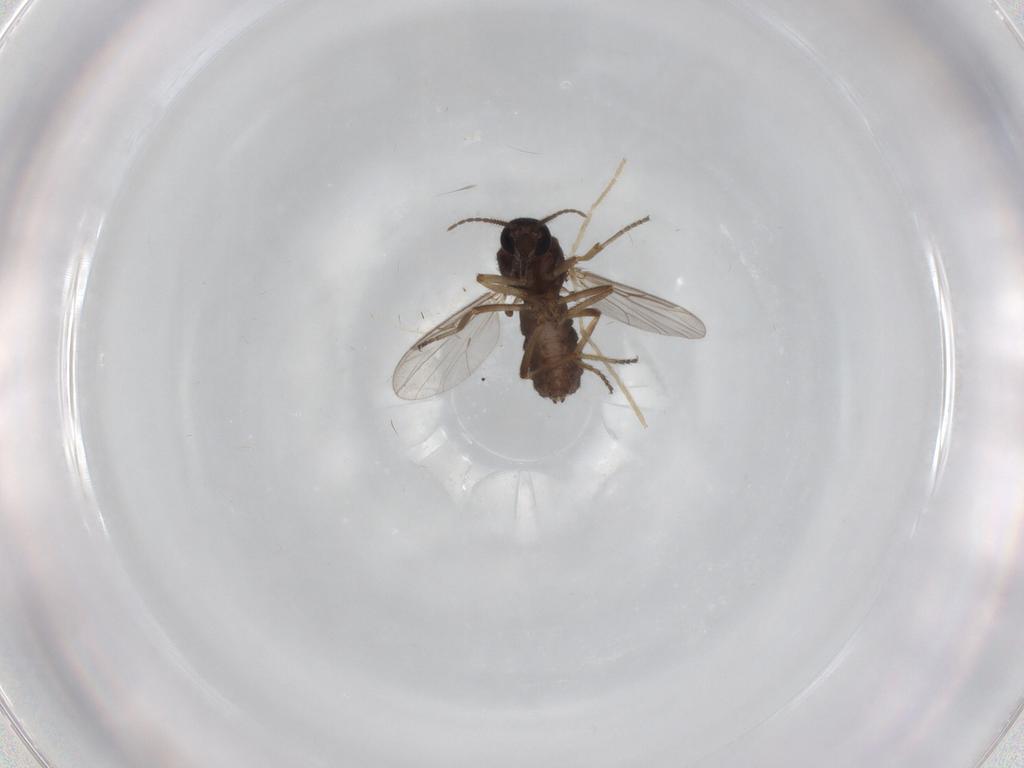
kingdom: Animalia
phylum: Arthropoda
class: Insecta
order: Diptera
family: Ceratopogonidae
